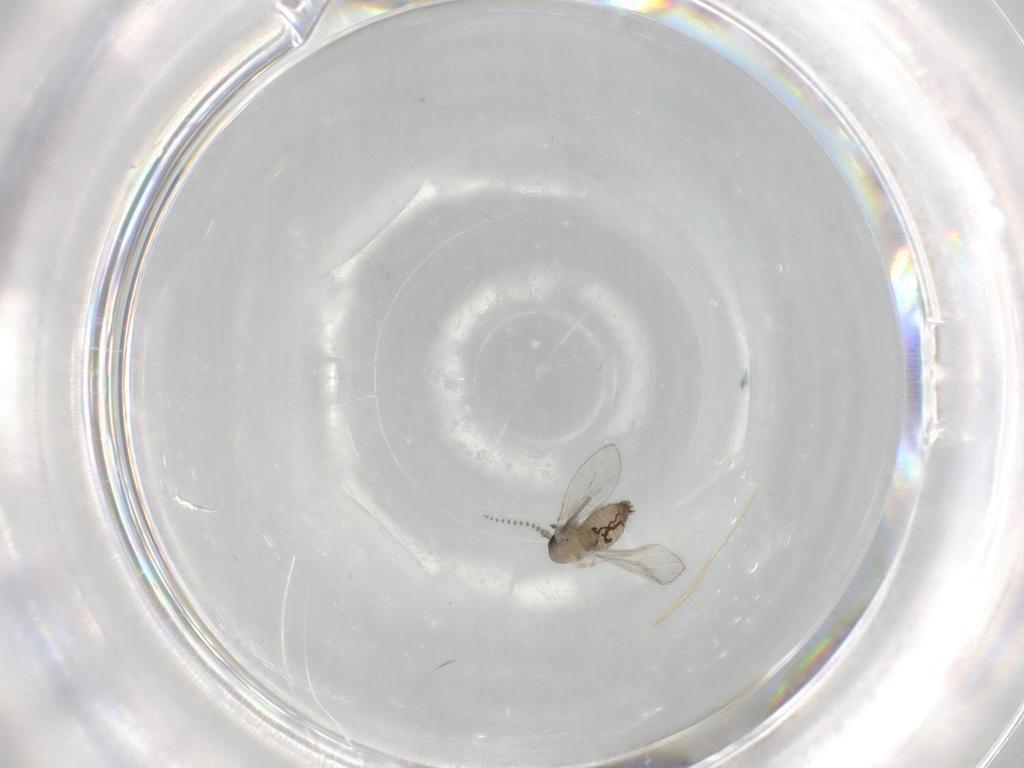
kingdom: Animalia
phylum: Arthropoda
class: Insecta
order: Diptera
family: Psychodidae
